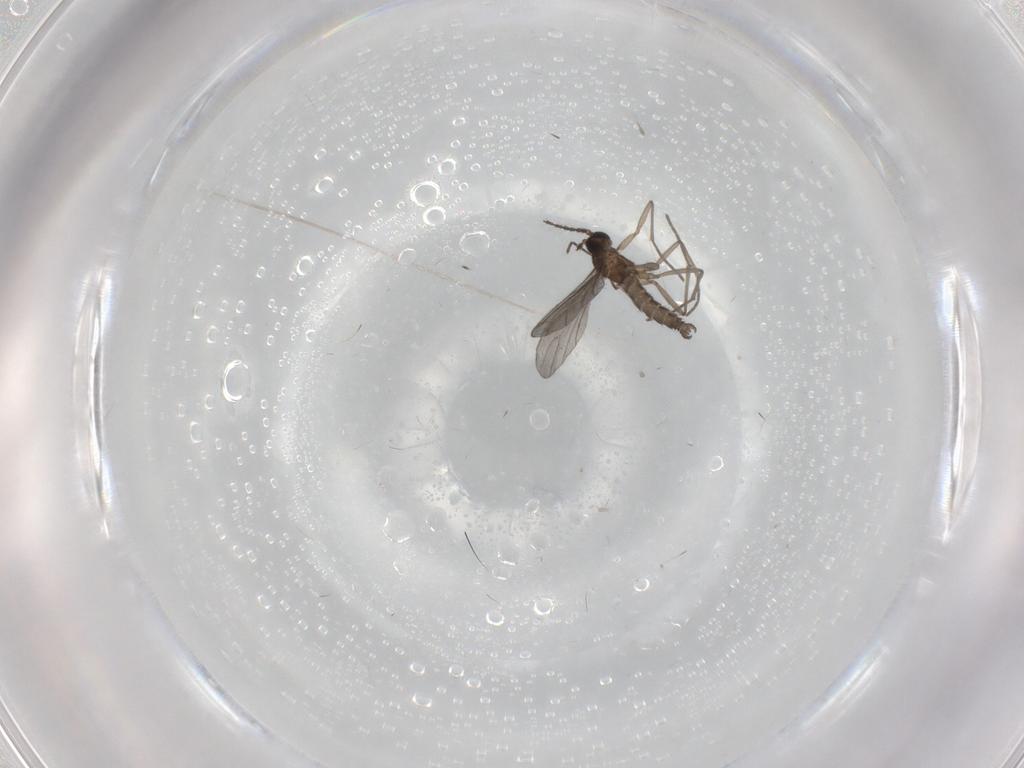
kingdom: Animalia
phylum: Arthropoda
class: Insecta
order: Diptera
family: Sciaridae
